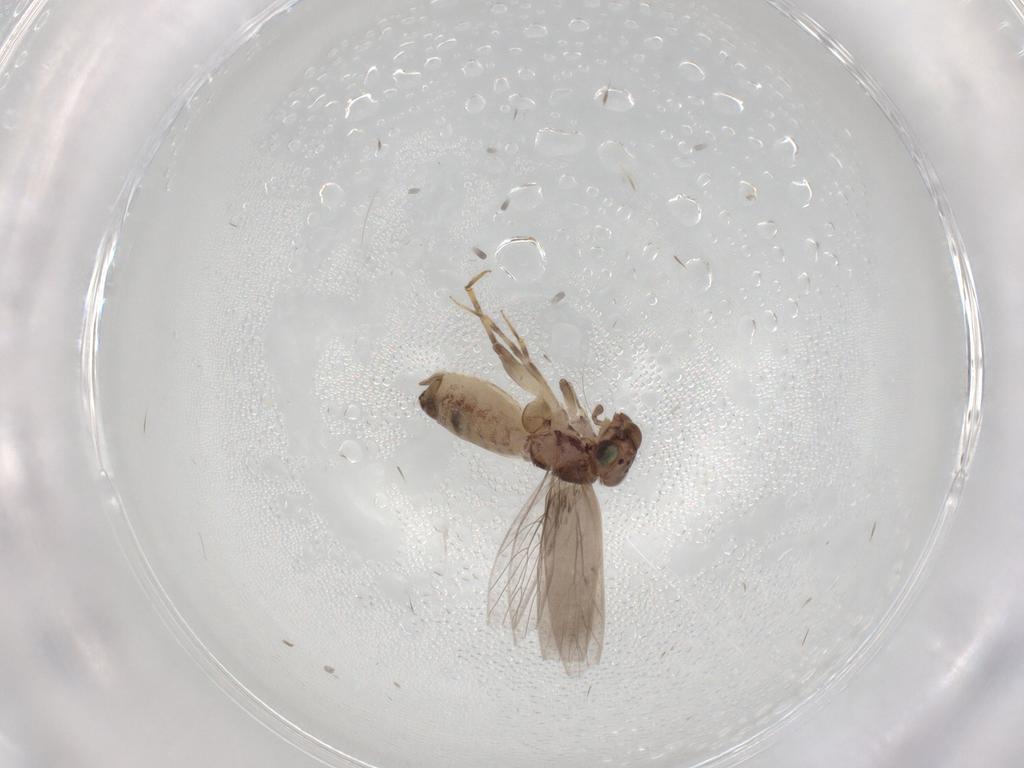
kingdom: Animalia
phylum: Arthropoda
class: Insecta
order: Psocodea
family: Lepidopsocidae
